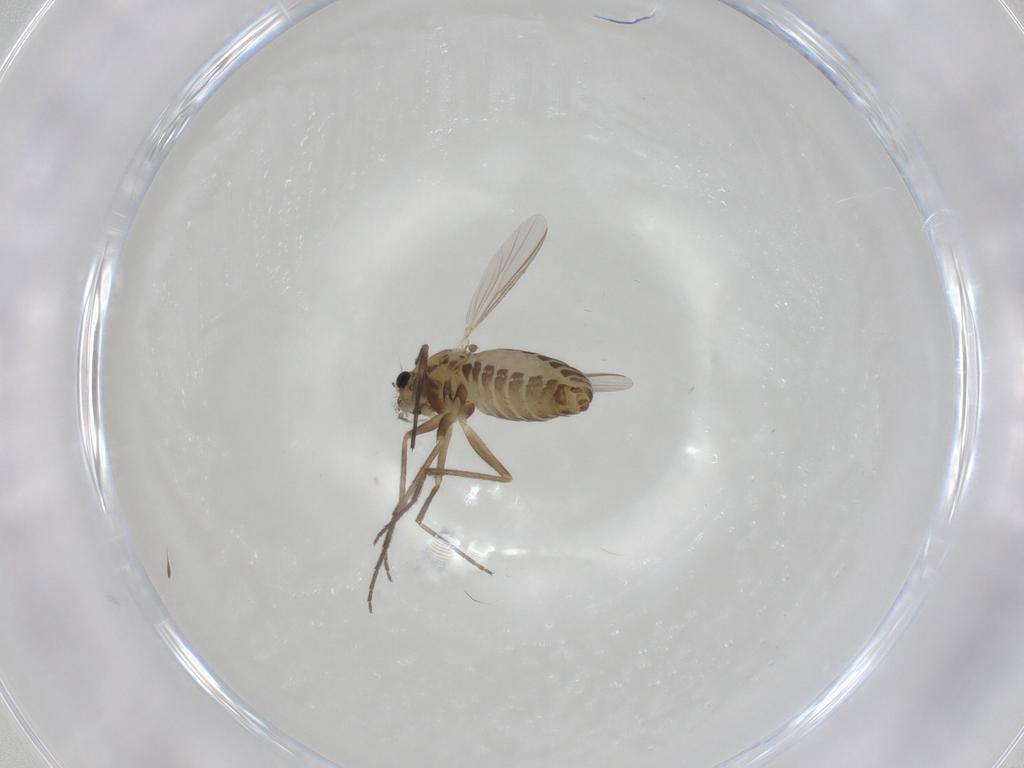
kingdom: Animalia
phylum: Arthropoda
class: Insecta
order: Diptera
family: Chironomidae
